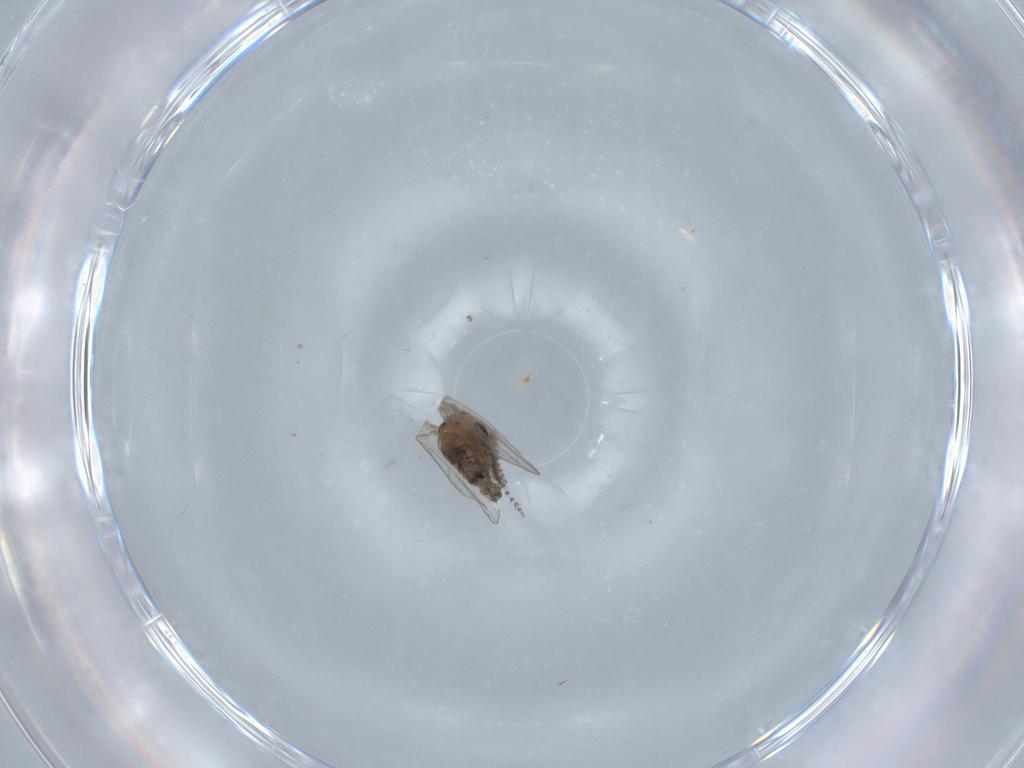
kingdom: Animalia
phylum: Arthropoda
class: Insecta
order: Diptera
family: Psychodidae
